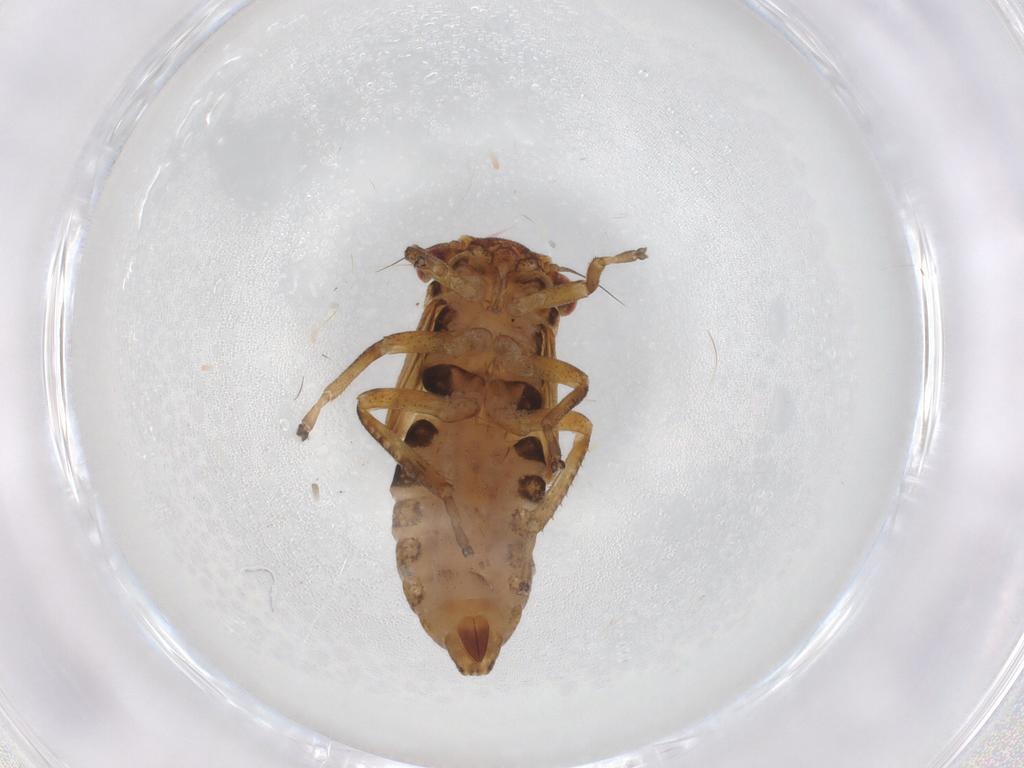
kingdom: Animalia
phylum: Arthropoda
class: Insecta
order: Hemiptera
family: Cicadellidae
